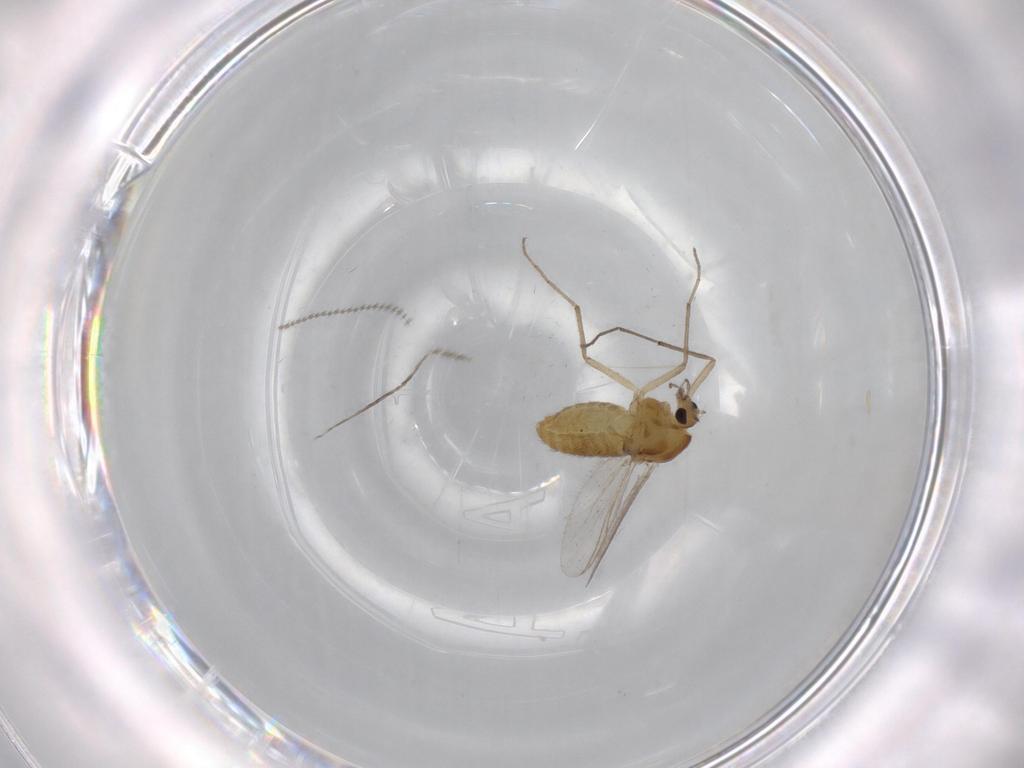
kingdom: Animalia
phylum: Arthropoda
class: Insecta
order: Diptera
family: Chironomidae
